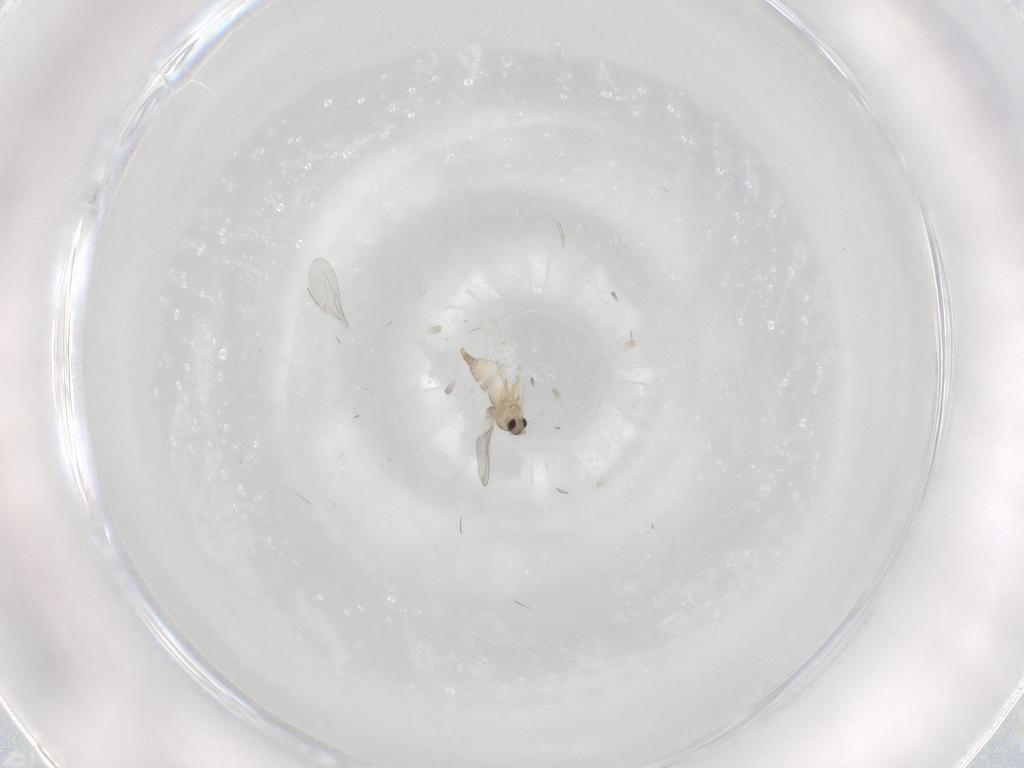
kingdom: Animalia
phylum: Arthropoda
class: Insecta
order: Diptera
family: Cecidomyiidae
